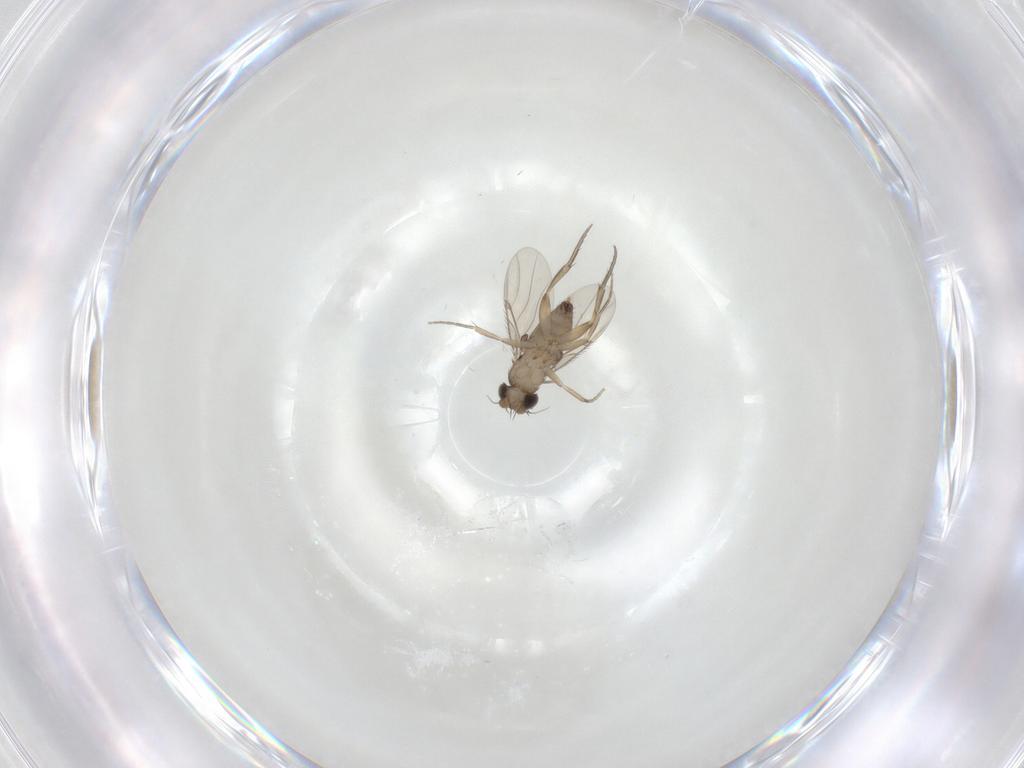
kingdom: Animalia
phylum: Arthropoda
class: Insecta
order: Diptera
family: Phoridae
